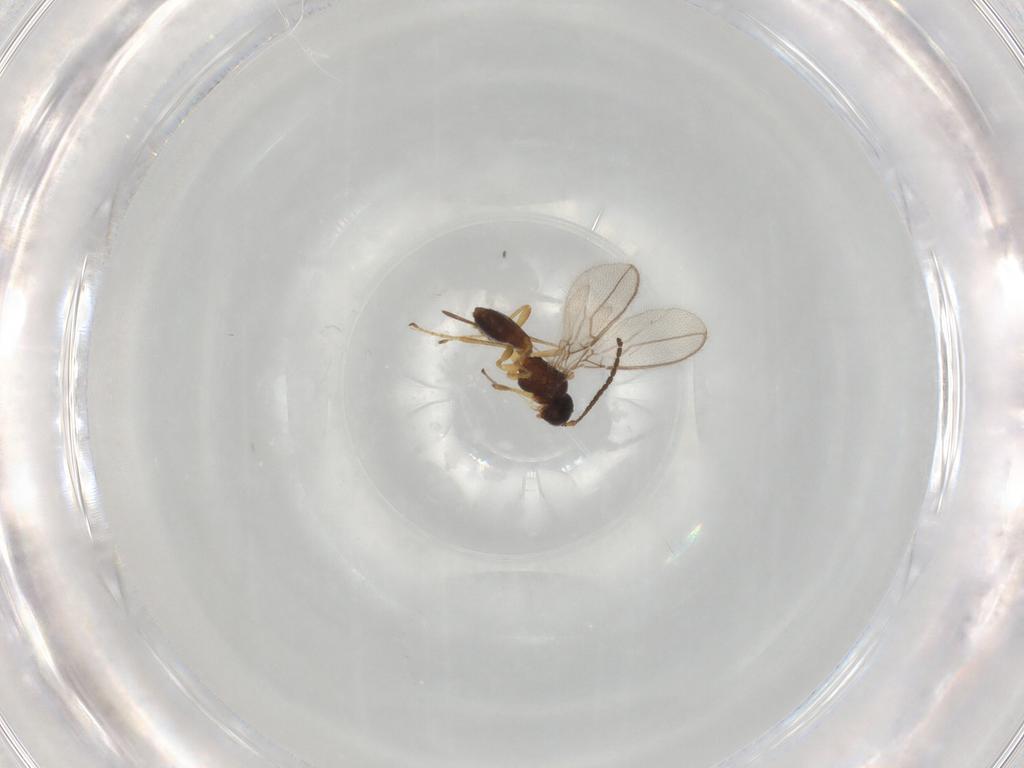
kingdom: Animalia
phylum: Arthropoda
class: Insecta
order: Hymenoptera
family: Braconidae
